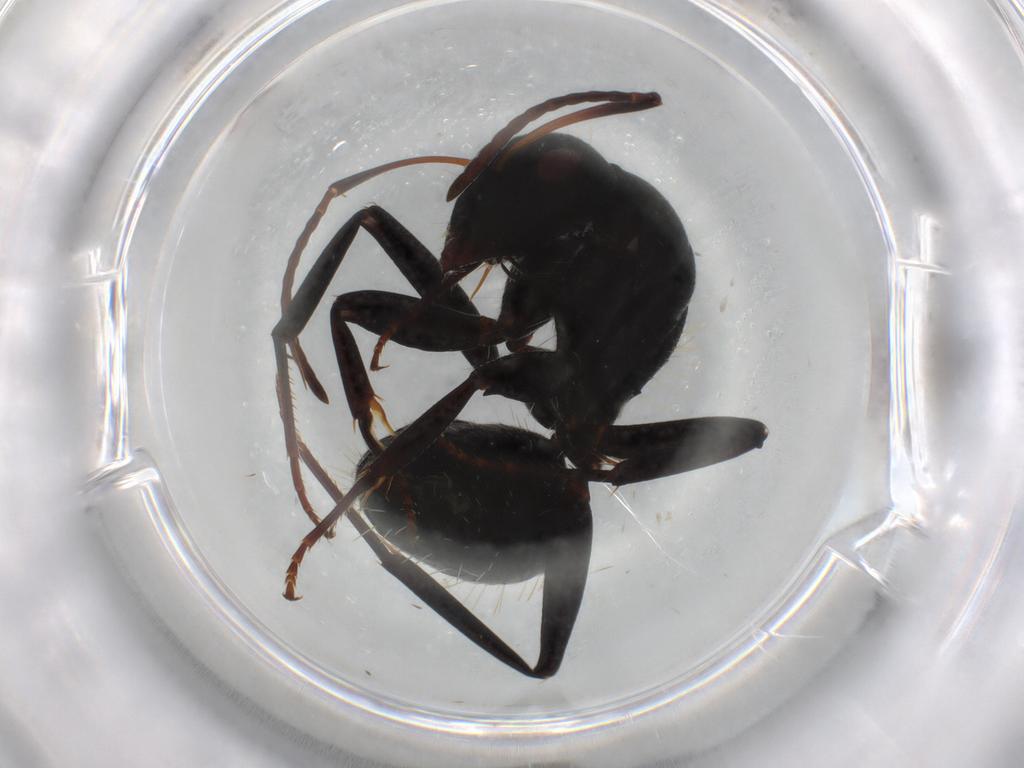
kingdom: Animalia
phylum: Arthropoda
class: Insecta
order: Hymenoptera
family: Formicidae
